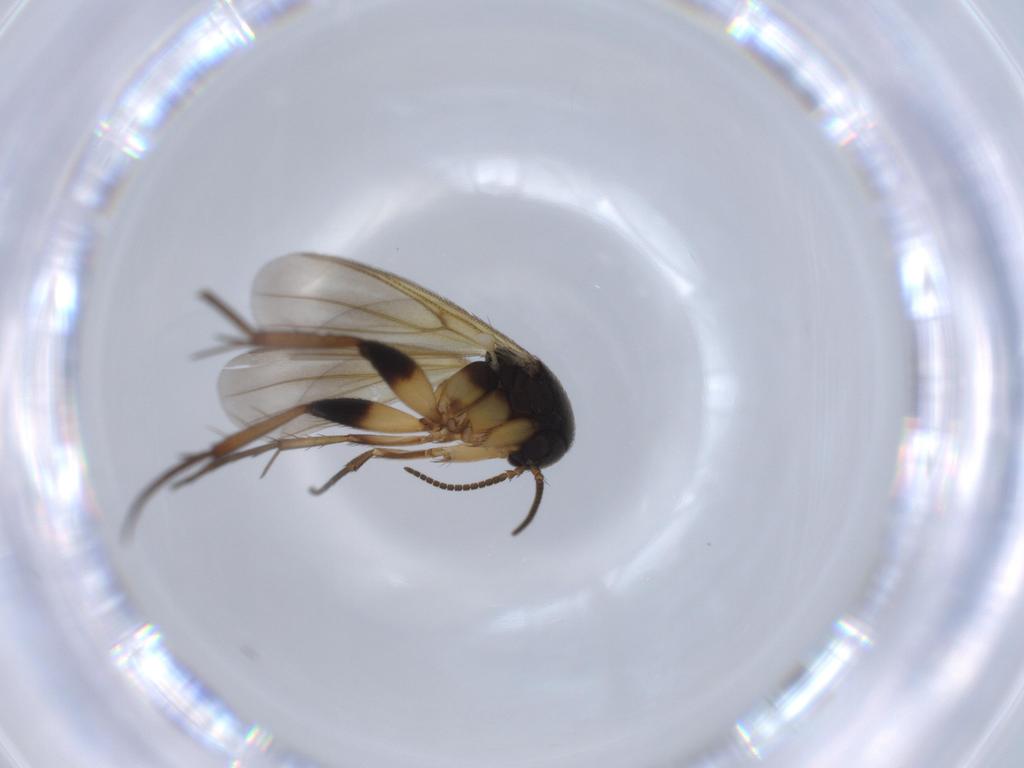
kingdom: Animalia
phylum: Arthropoda
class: Insecta
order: Diptera
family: Mycetophilidae
